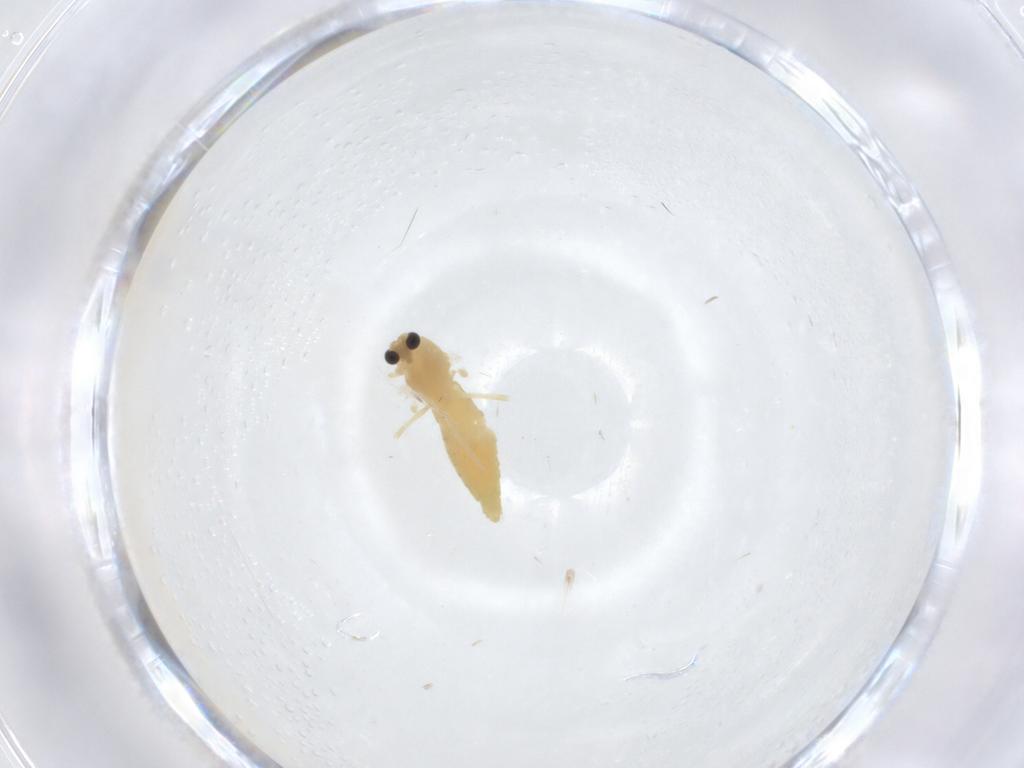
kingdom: Animalia
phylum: Arthropoda
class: Insecta
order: Diptera
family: Chironomidae
